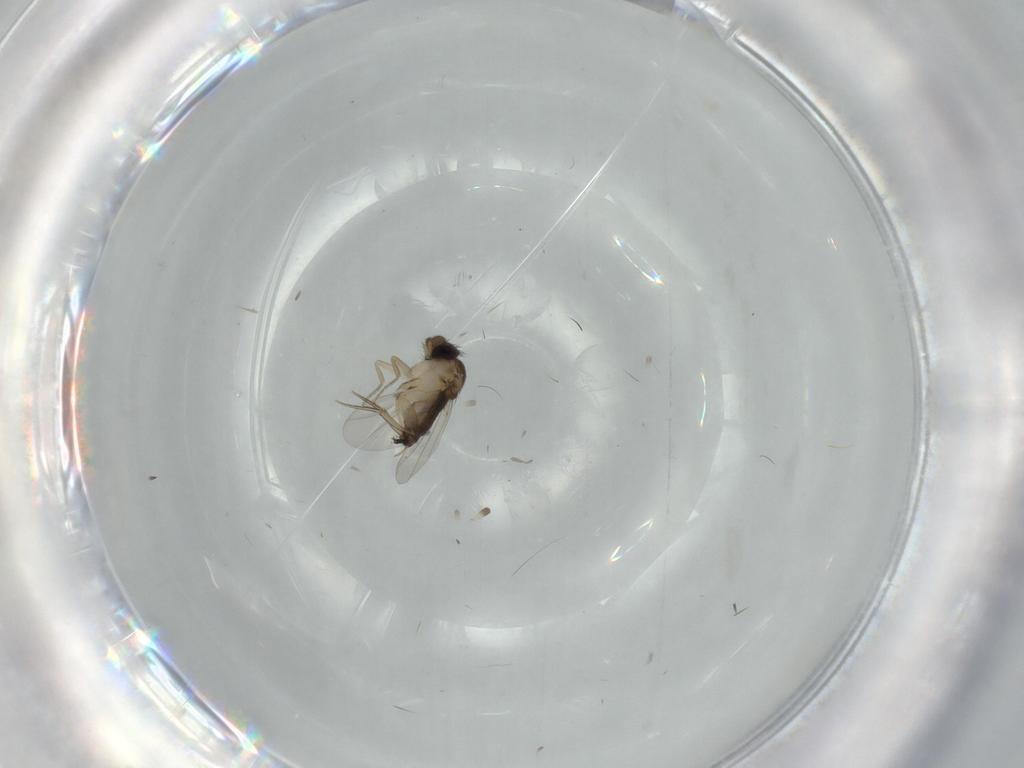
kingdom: Animalia
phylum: Arthropoda
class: Insecta
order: Diptera
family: Phoridae
